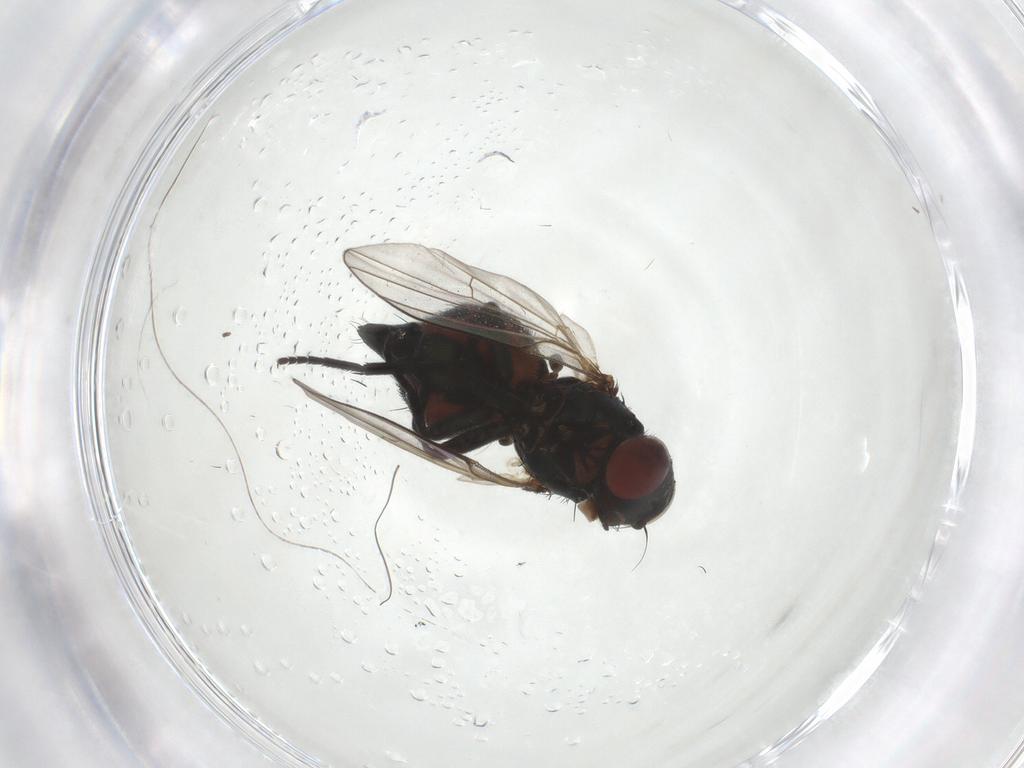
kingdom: Animalia
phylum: Arthropoda
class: Insecta
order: Diptera
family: Agromyzidae
